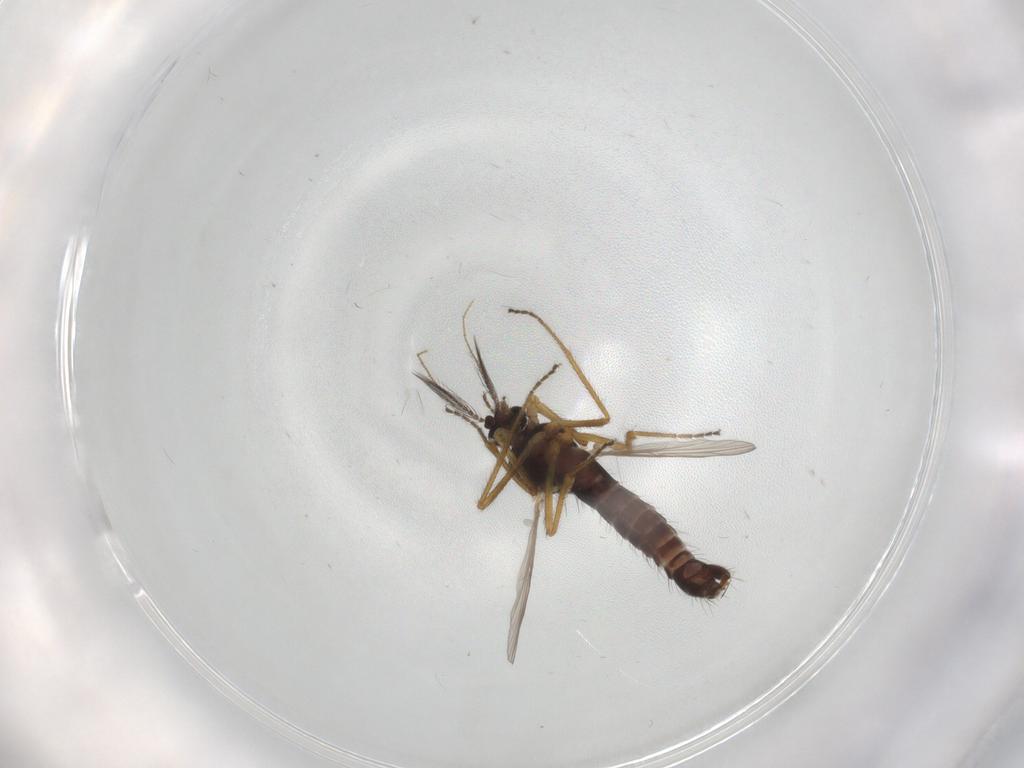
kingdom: Animalia
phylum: Arthropoda
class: Insecta
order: Diptera
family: Ceratopogonidae
